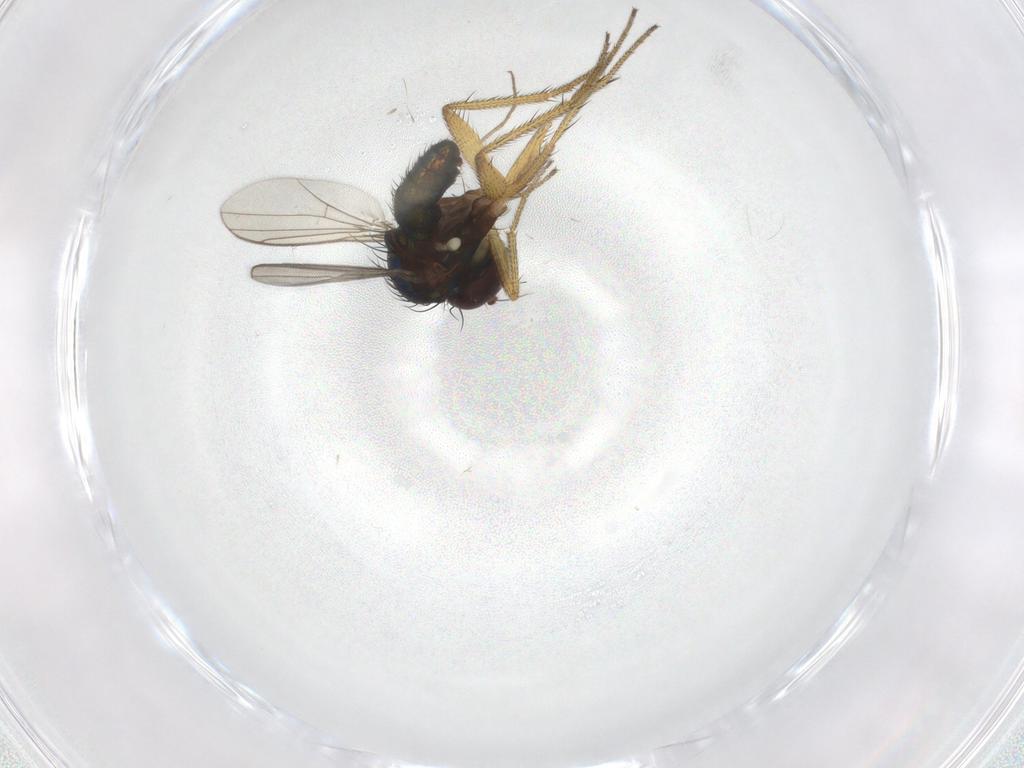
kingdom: Animalia
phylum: Arthropoda
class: Insecta
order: Diptera
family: Chironomidae
